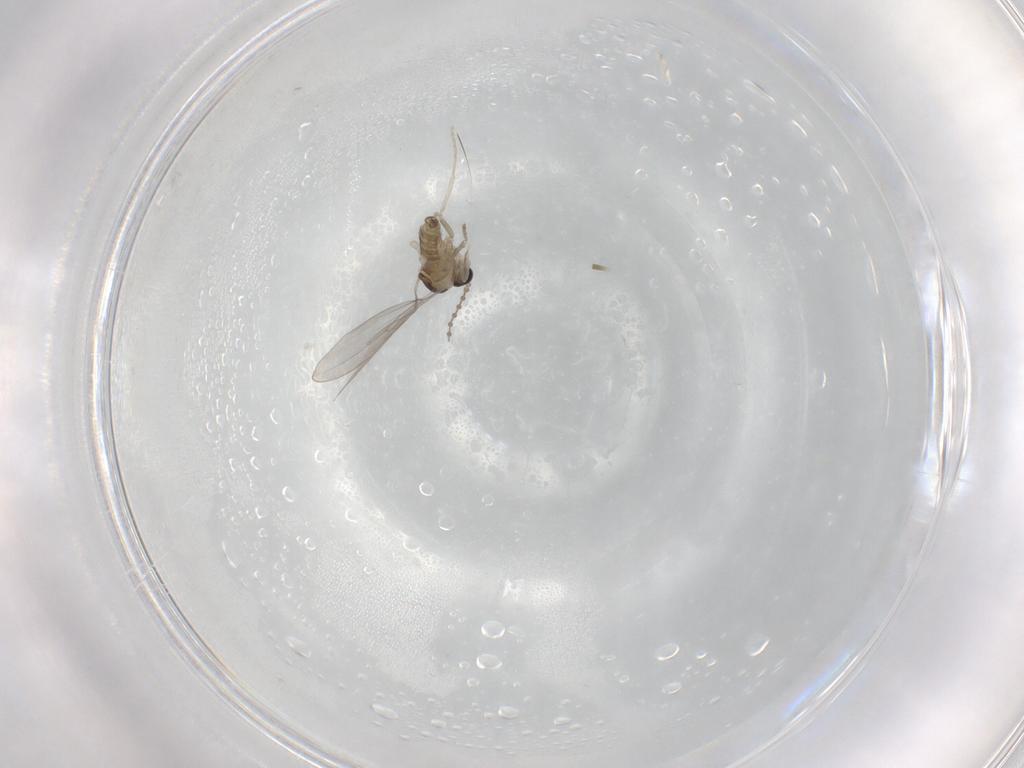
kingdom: Animalia
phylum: Arthropoda
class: Insecta
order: Diptera
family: Cecidomyiidae
